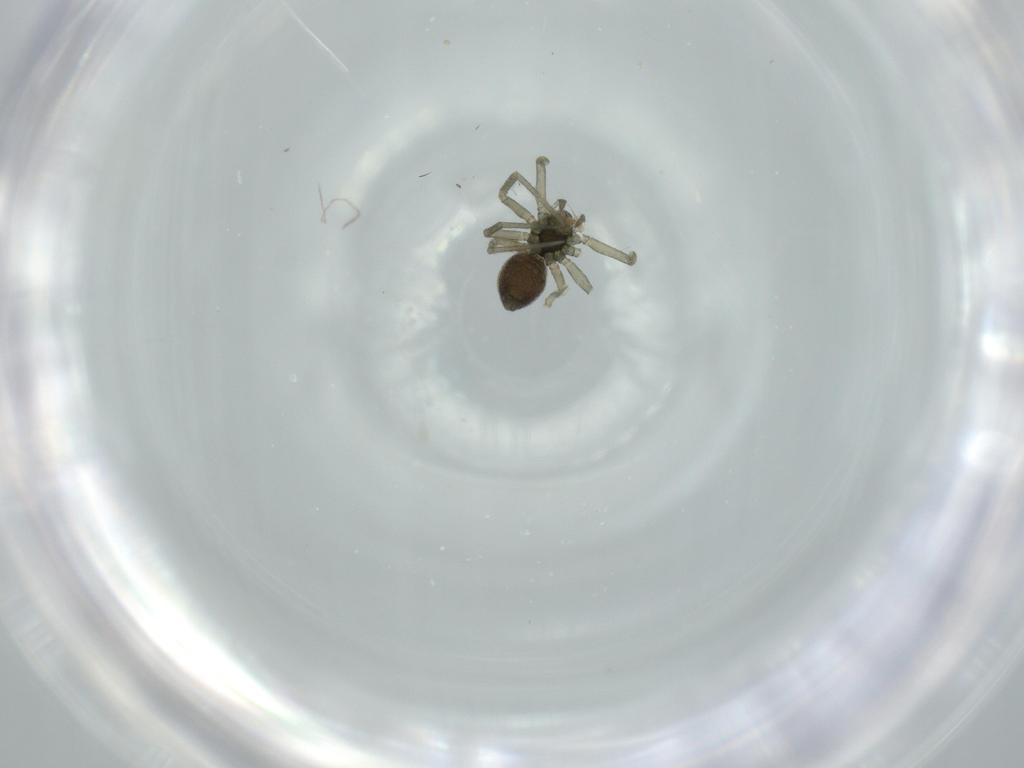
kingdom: Animalia
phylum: Arthropoda
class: Arachnida
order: Araneae
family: Linyphiidae
